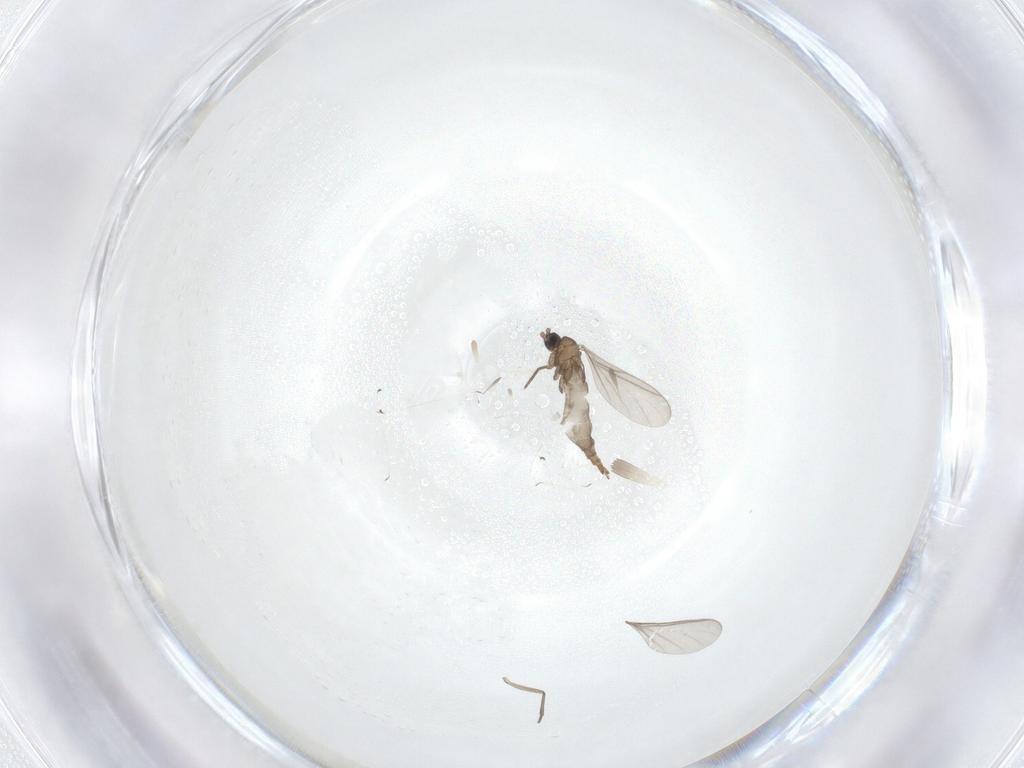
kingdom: Animalia
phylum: Arthropoda
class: Insecta
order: Diptera
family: Sciaridae
